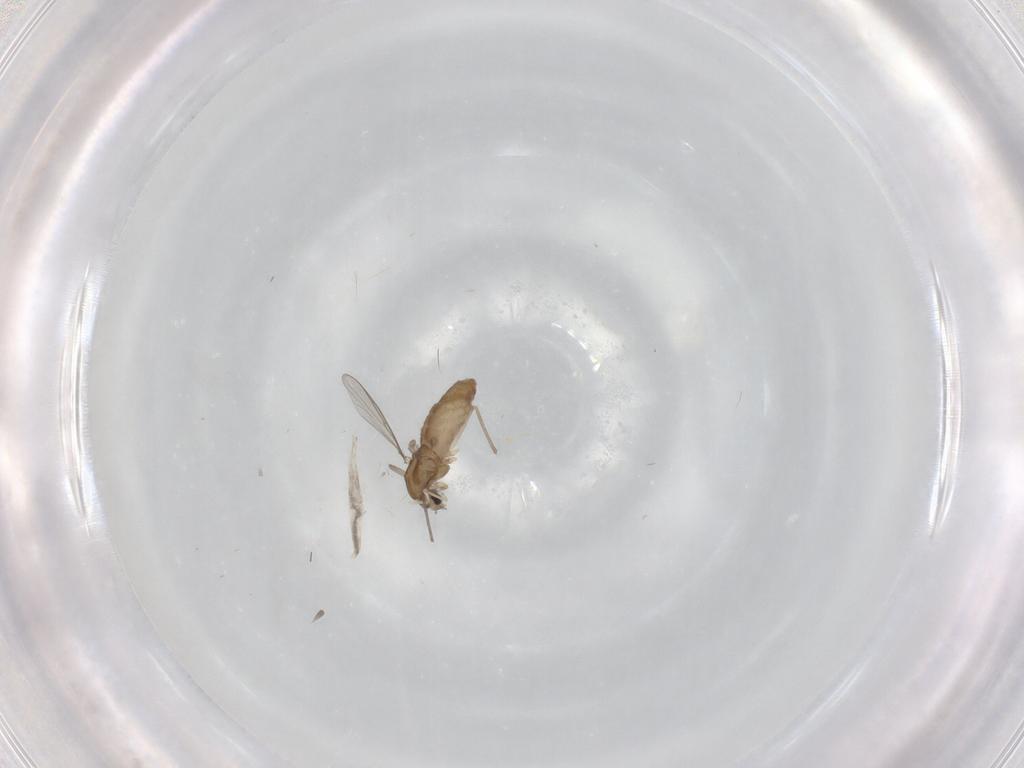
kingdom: Animalia
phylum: Arthropoda
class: Insecta
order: Diptera
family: Chironomidae
